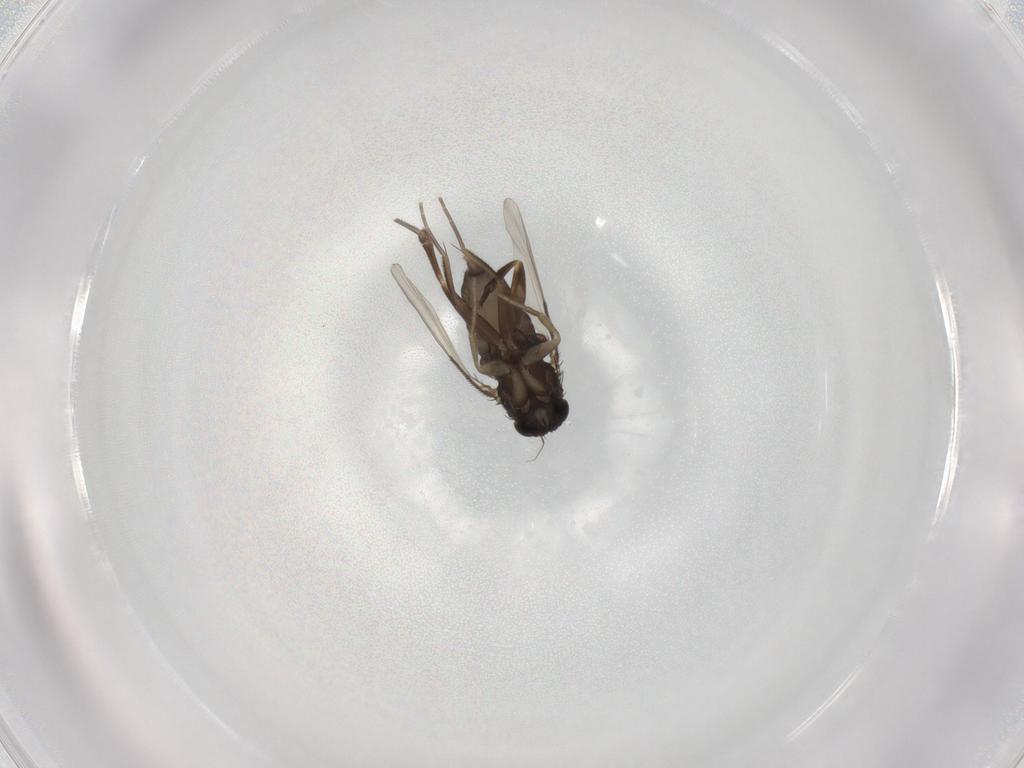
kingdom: Animalia
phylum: Arthropoda
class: Insecta
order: Diptera
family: Phoridae
